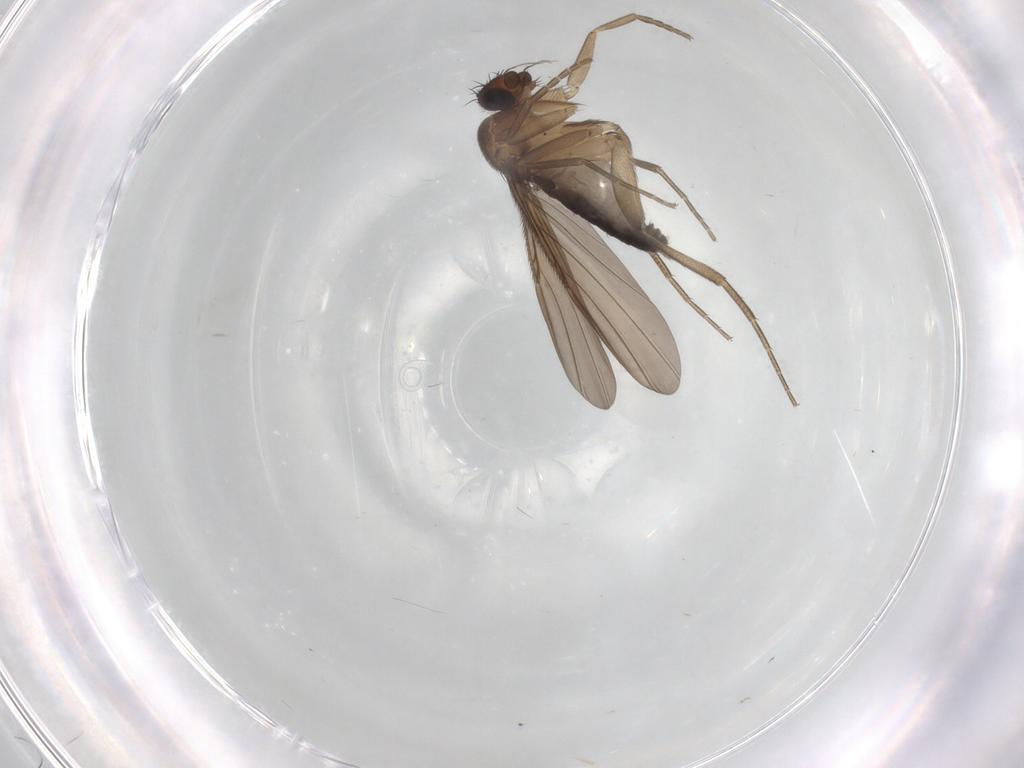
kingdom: Animalia
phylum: Arthropoda
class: Insecta
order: Diptera
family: Phoridae
